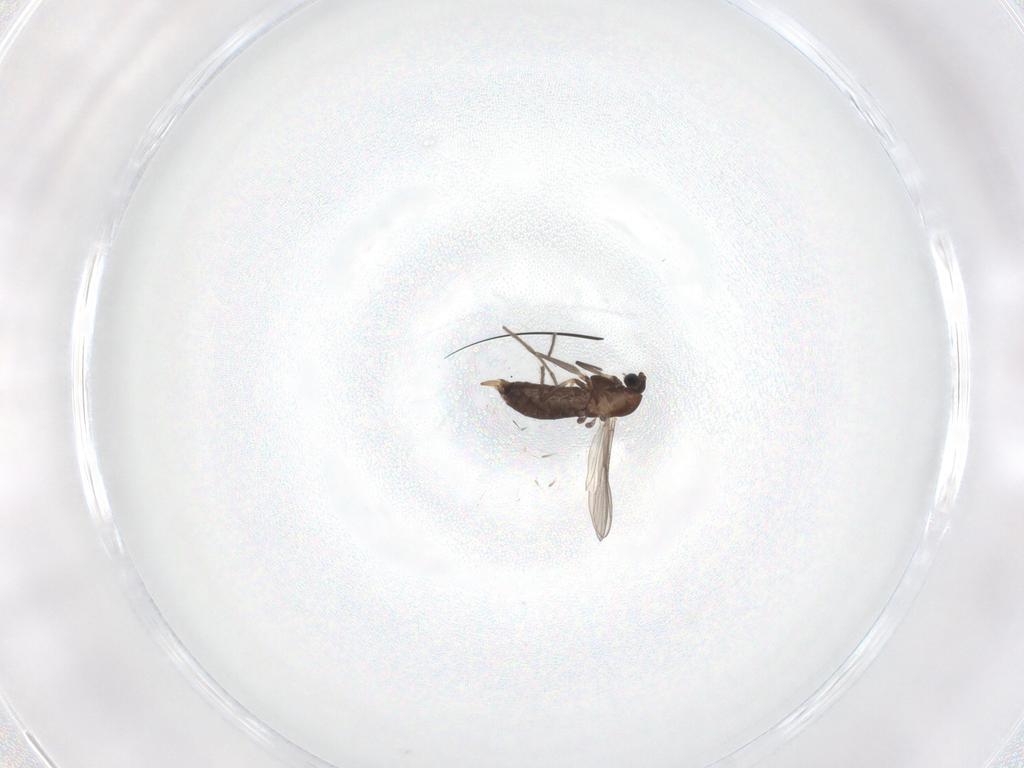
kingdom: Animalia
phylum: Arthropoda
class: Insecta
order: Diptera
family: Chironomidae
